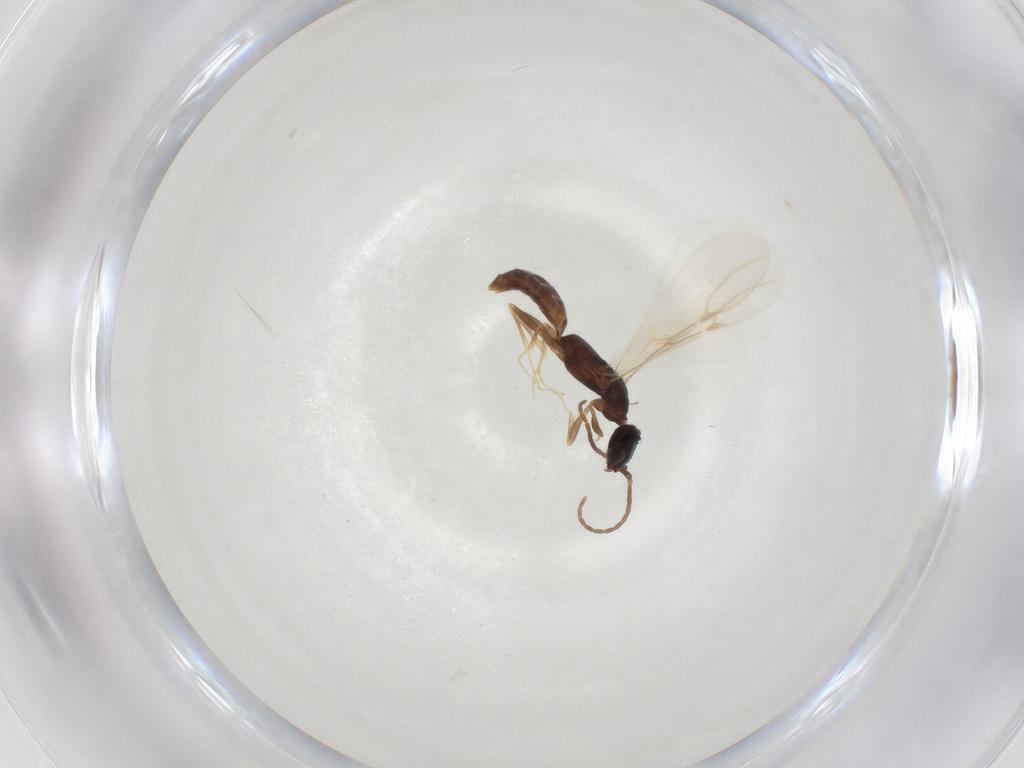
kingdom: Animalia
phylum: Arthropoda
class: Insecta
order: Hymenoptera
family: Bethylidae
